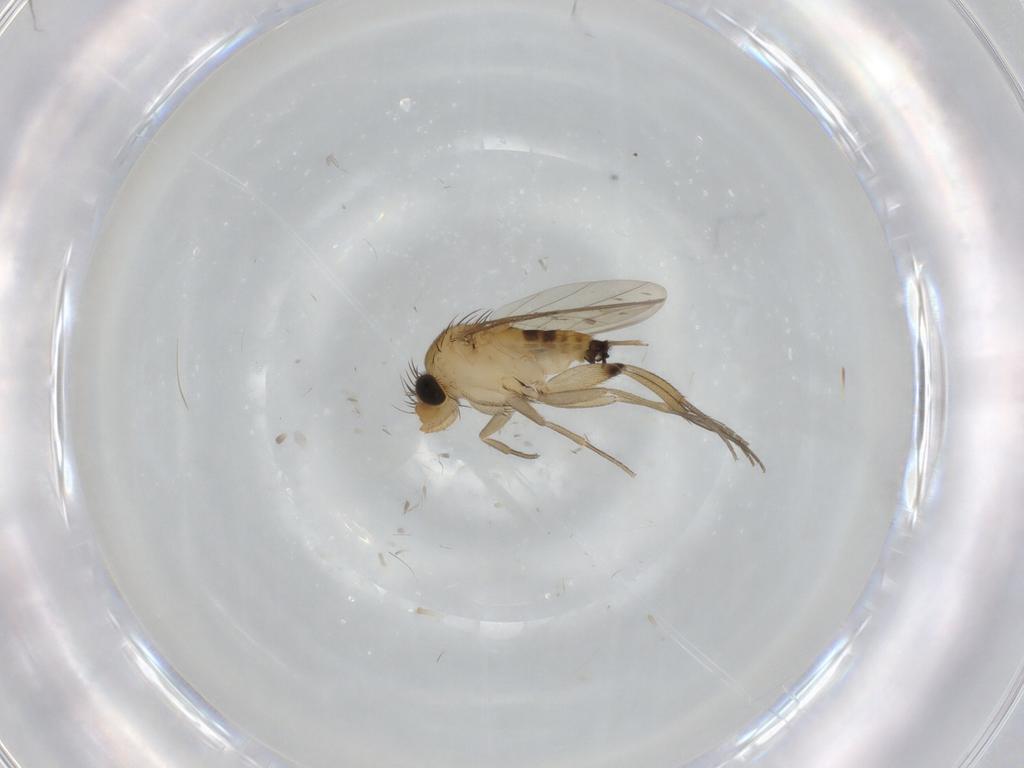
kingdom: Animalia
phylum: Arthropoda
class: Insecta
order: Diptera
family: Phoridae
